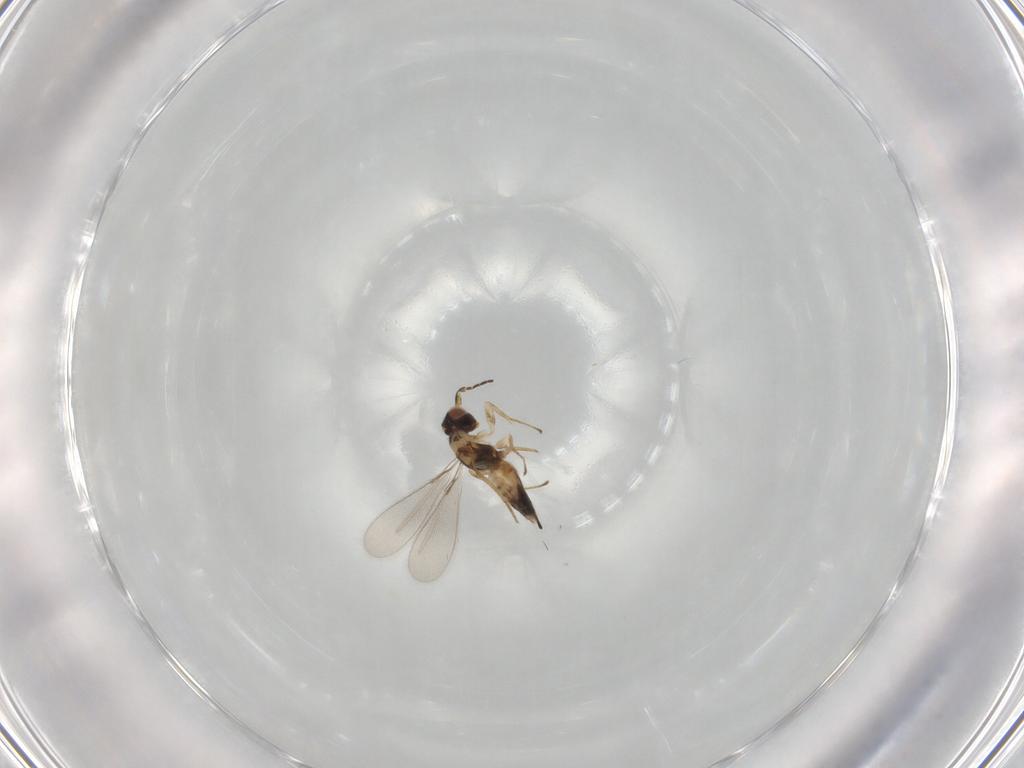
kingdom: Animalia
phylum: Arthropoda
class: Insecta
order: Hymenoptera
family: Mymaridae
